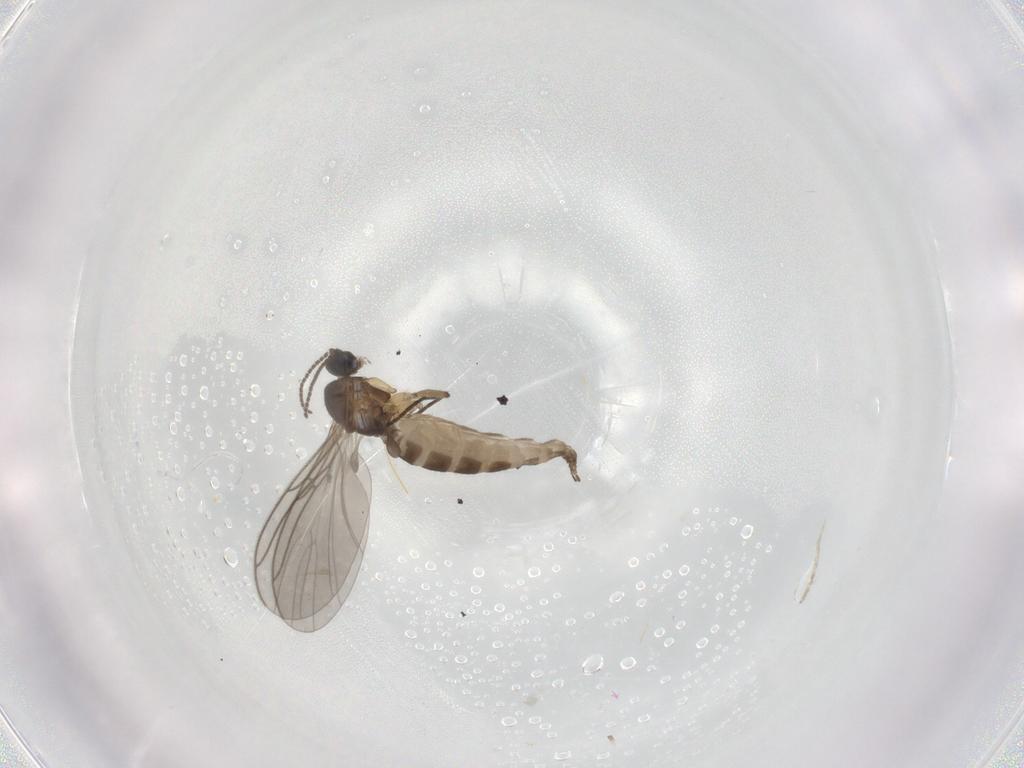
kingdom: Animalia
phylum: Arthropoda
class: Insecta
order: Diptera
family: Sciaridae
